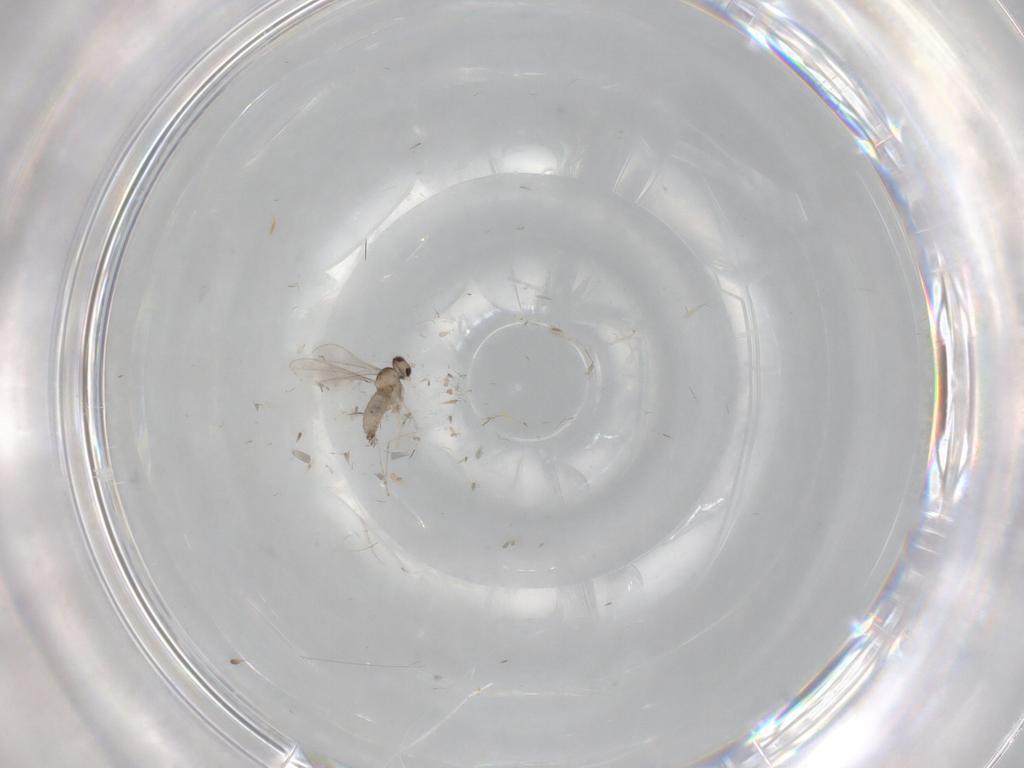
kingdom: Animalia
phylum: Arthropoda
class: Insecta
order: Diptera
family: Cecidomyiidae
